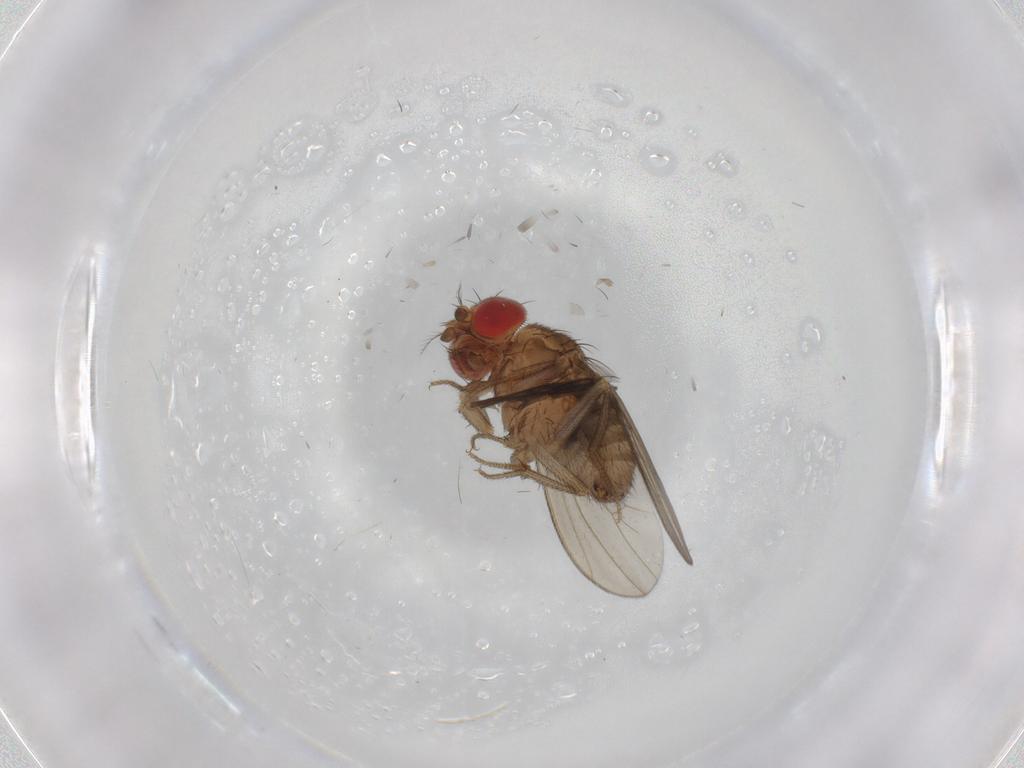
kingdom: Animalia
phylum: Arthropoda
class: Insecta
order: Diptera
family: Drosophilidae
